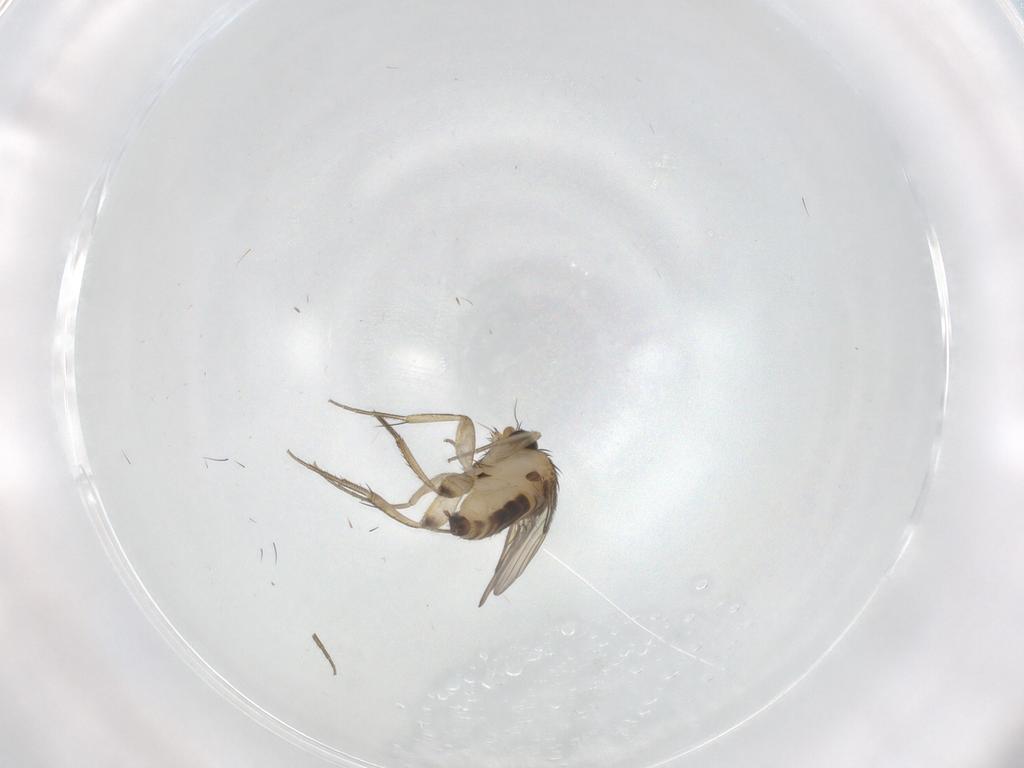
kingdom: Animalia
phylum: Arthropoda
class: Insecta
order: Diptera
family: Phoridae
